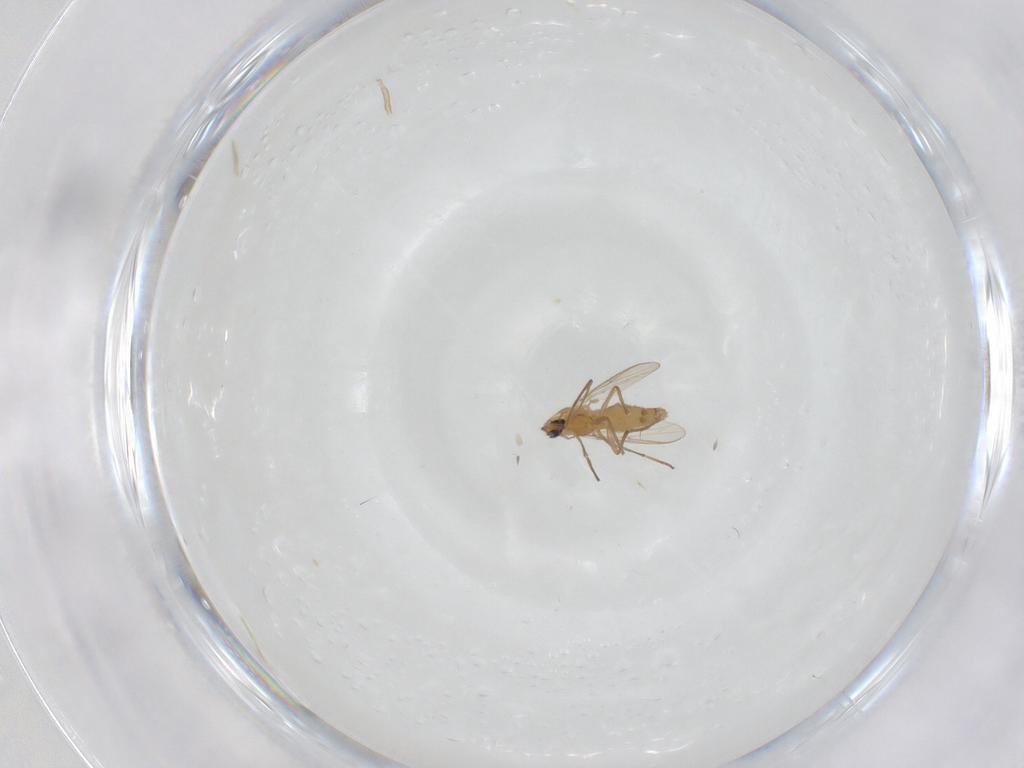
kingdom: Animalia
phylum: Arthropoda
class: Insecta
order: Diptera
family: Chironomidae
